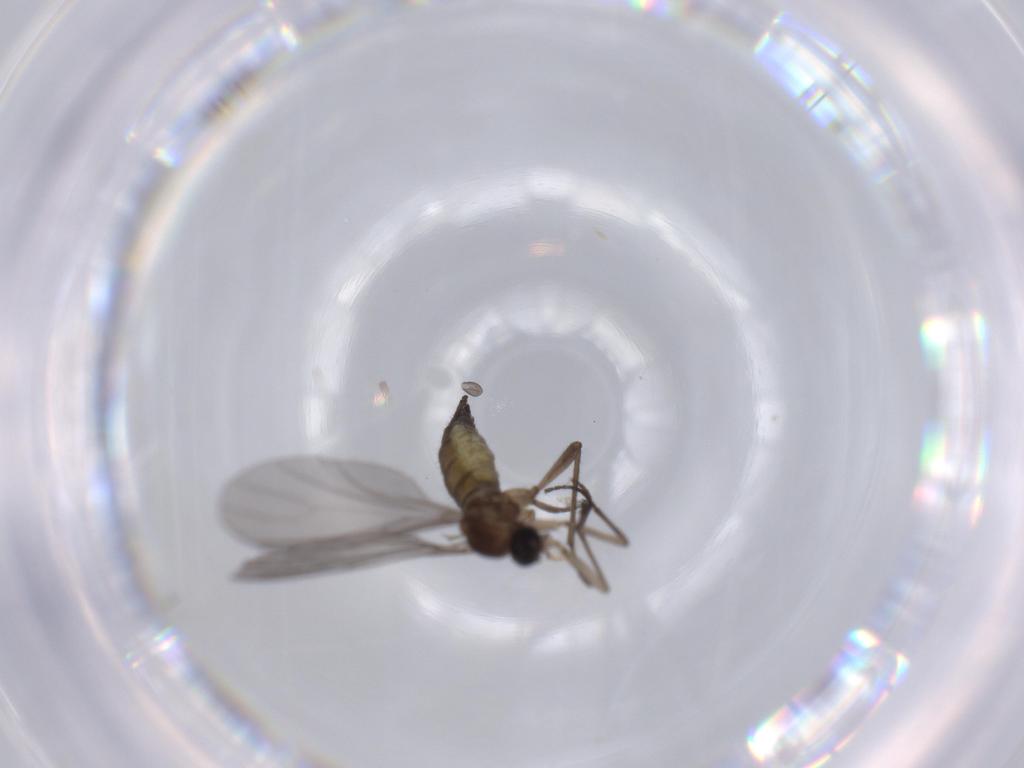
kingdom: Animalia
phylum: Arthropoda
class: Insecta
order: Diptera
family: Sciaridae
